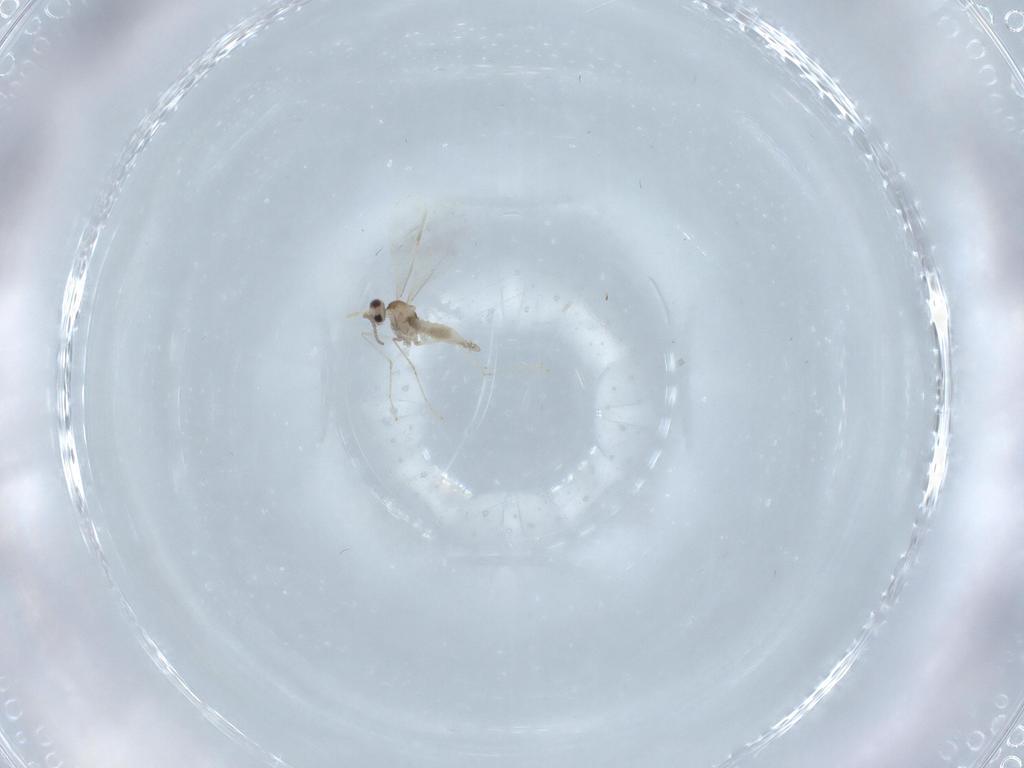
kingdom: Animalia
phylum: Arthropoda
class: Insecta
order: Diptera
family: Cecidomyiidae
